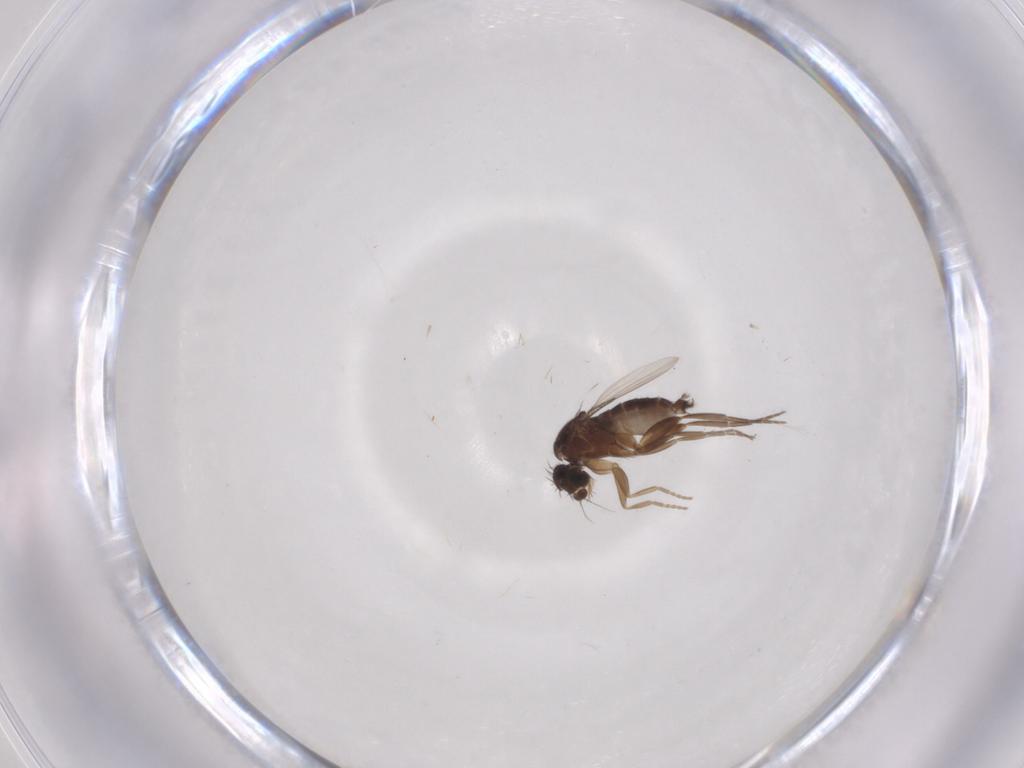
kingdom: Animalia
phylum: Arthropoda
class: Insecta
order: Diptera
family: Phoridae
